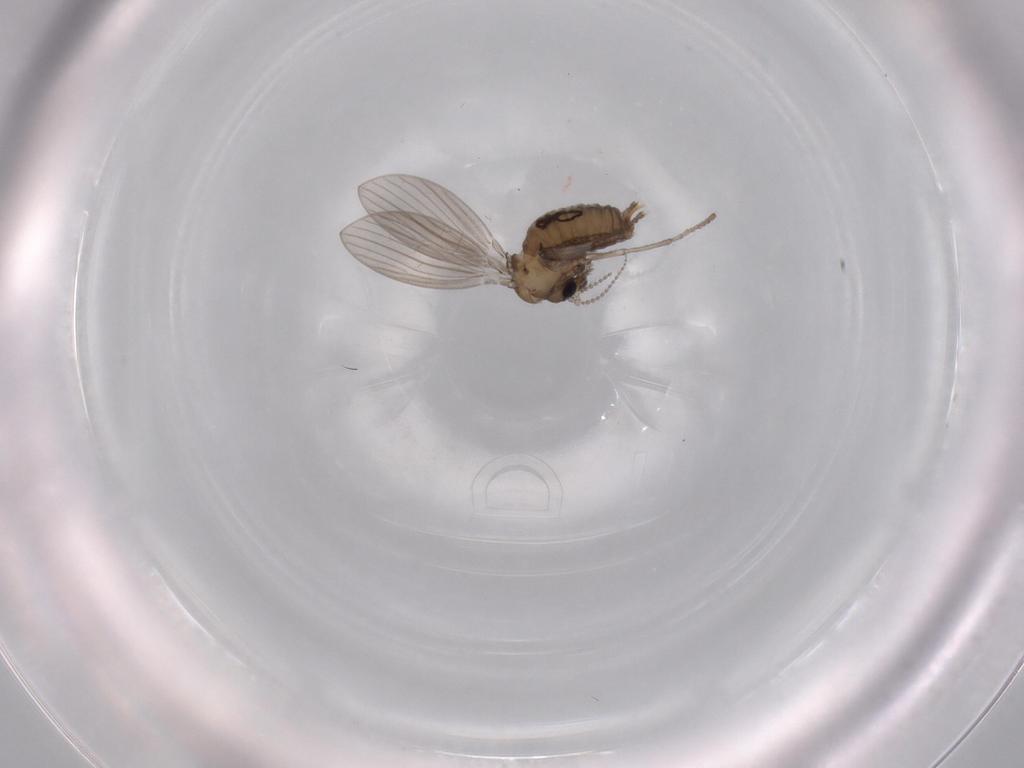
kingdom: Animalia
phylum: Arthropoda
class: Insecta
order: Diptera
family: Psychodidae
